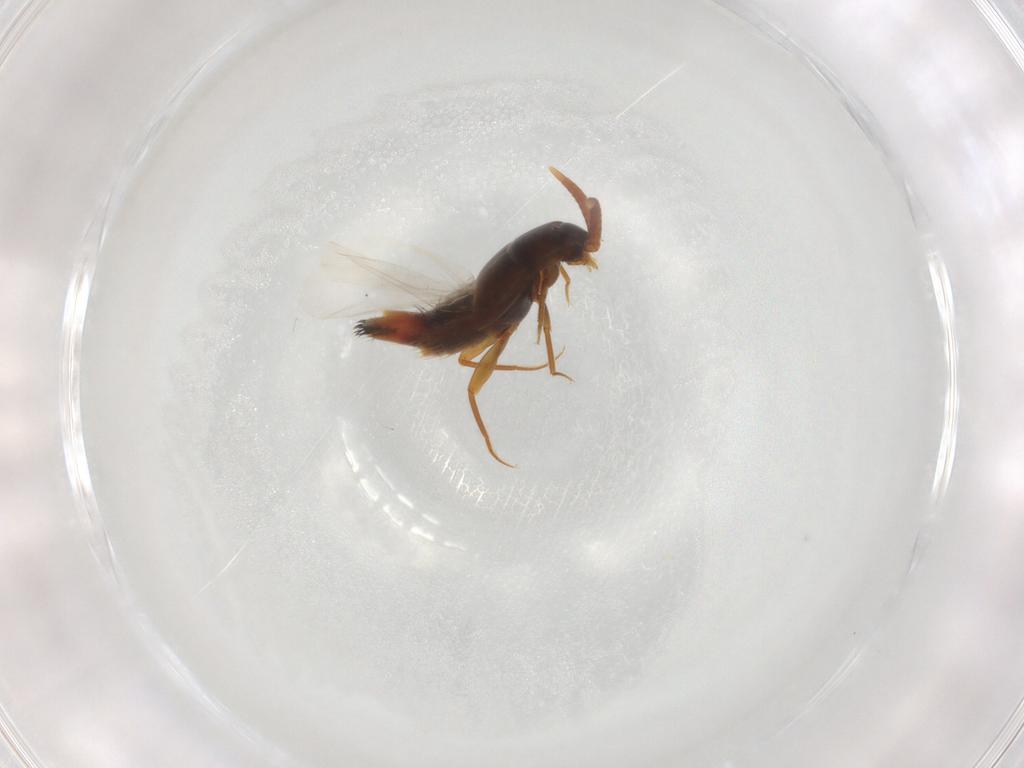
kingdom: Animalia
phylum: Arthropoda
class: Insecta
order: Coleoptera
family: Staphylinidae
